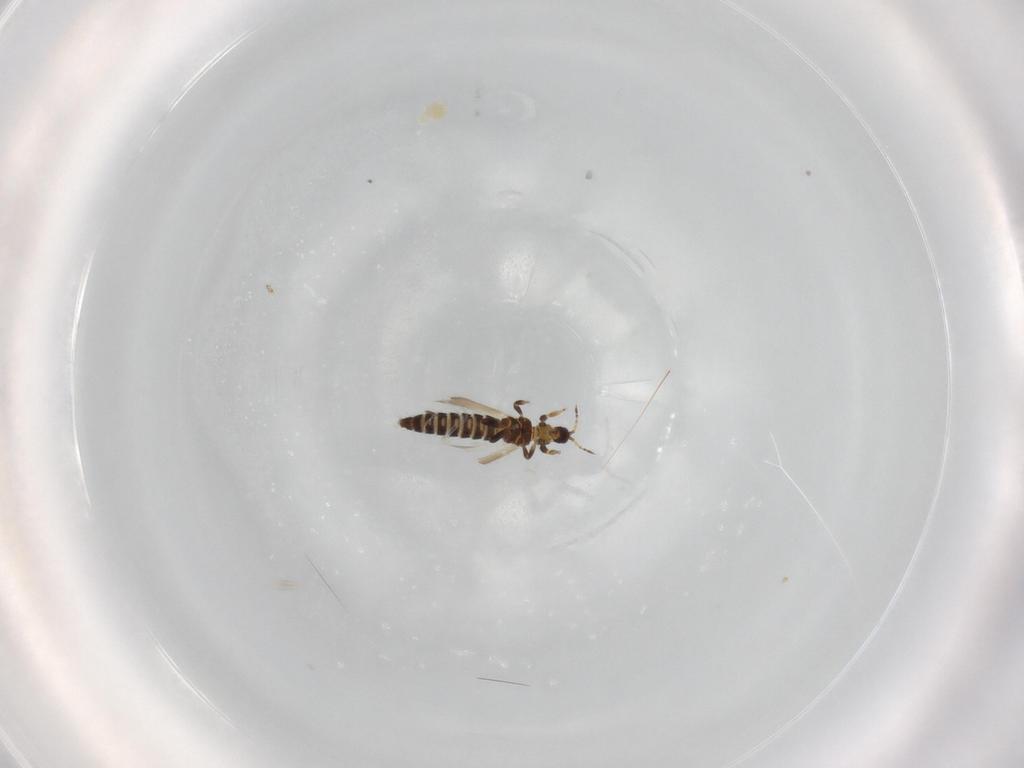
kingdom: Animalia
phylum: Arthropoda
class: Insecta
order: Thysanoptera
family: Thripidae
